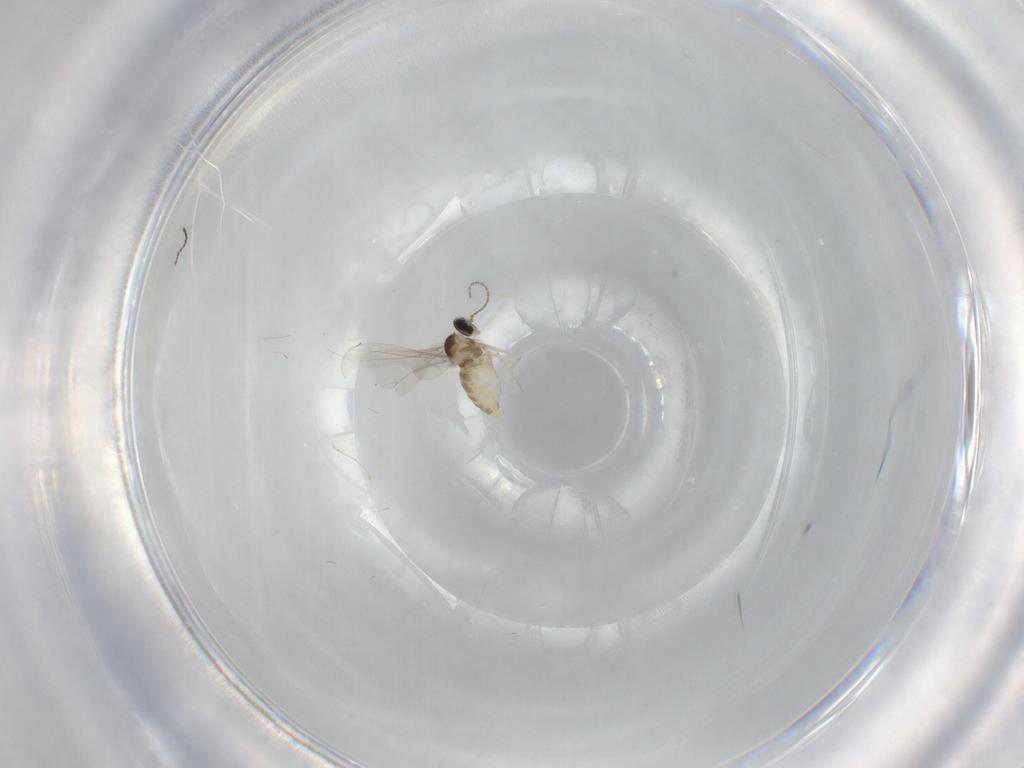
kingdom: Animalia
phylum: Arthropoda
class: Insecta
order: Diptera
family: Cecidomyiidae
